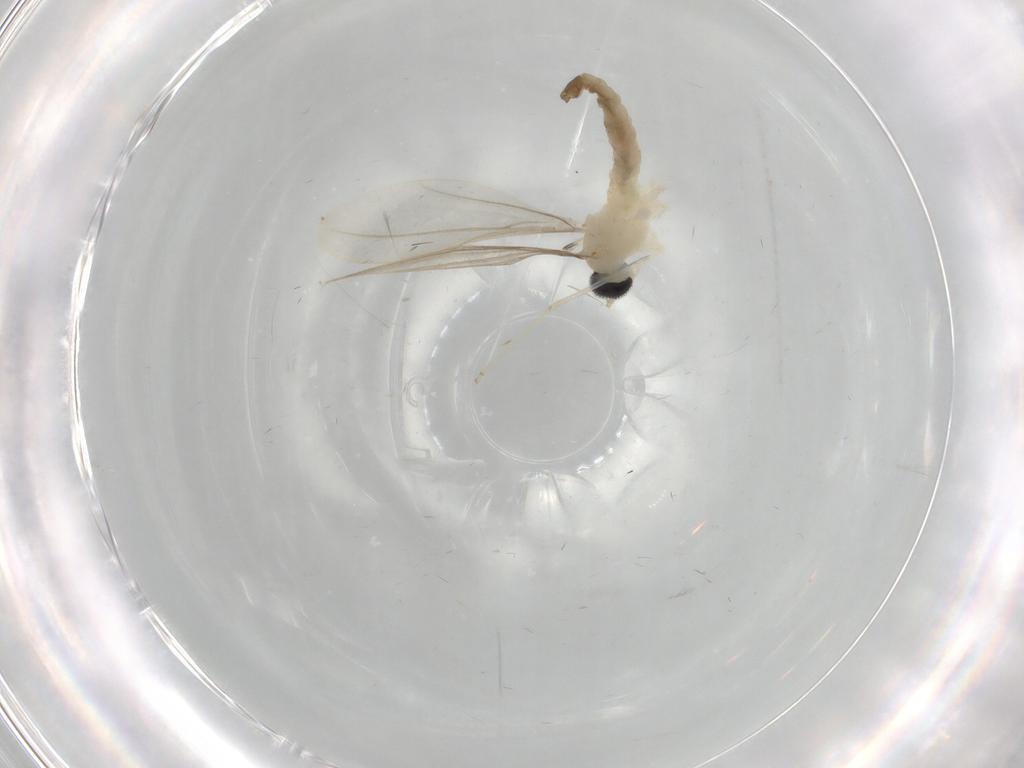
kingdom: Animalia
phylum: Arthropoda
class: Insecta
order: Diptera
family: Cecidomyiidae
